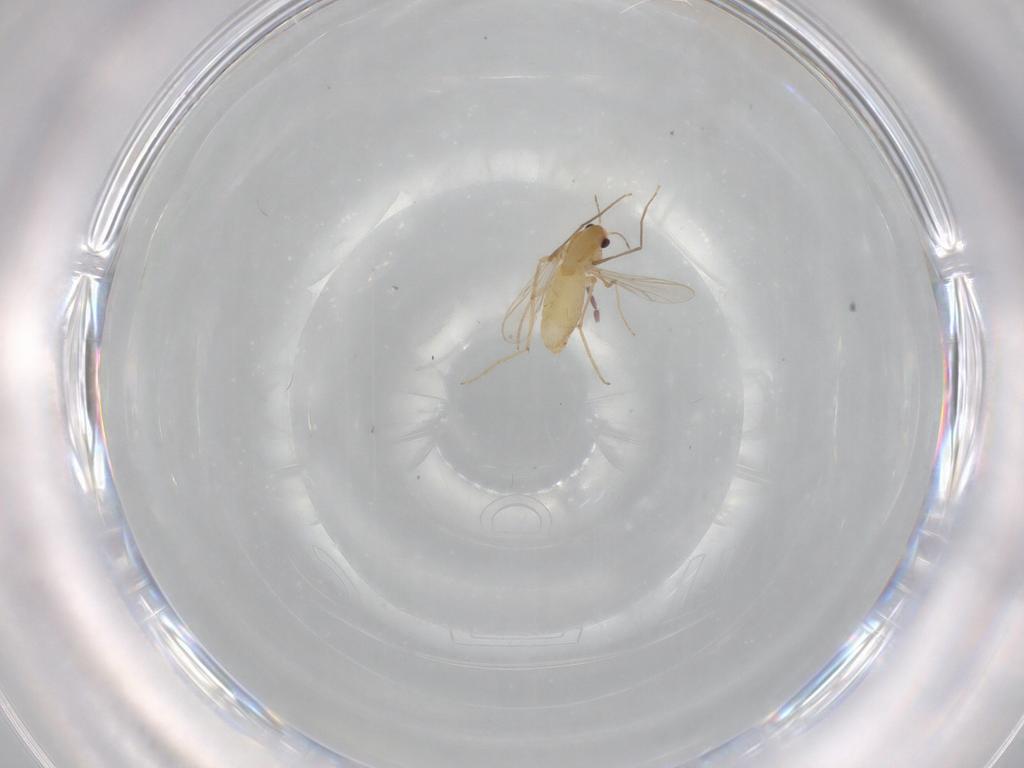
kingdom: Animalia
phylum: Arthropoda
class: Insecta
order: Diptera
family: Chironomidae
